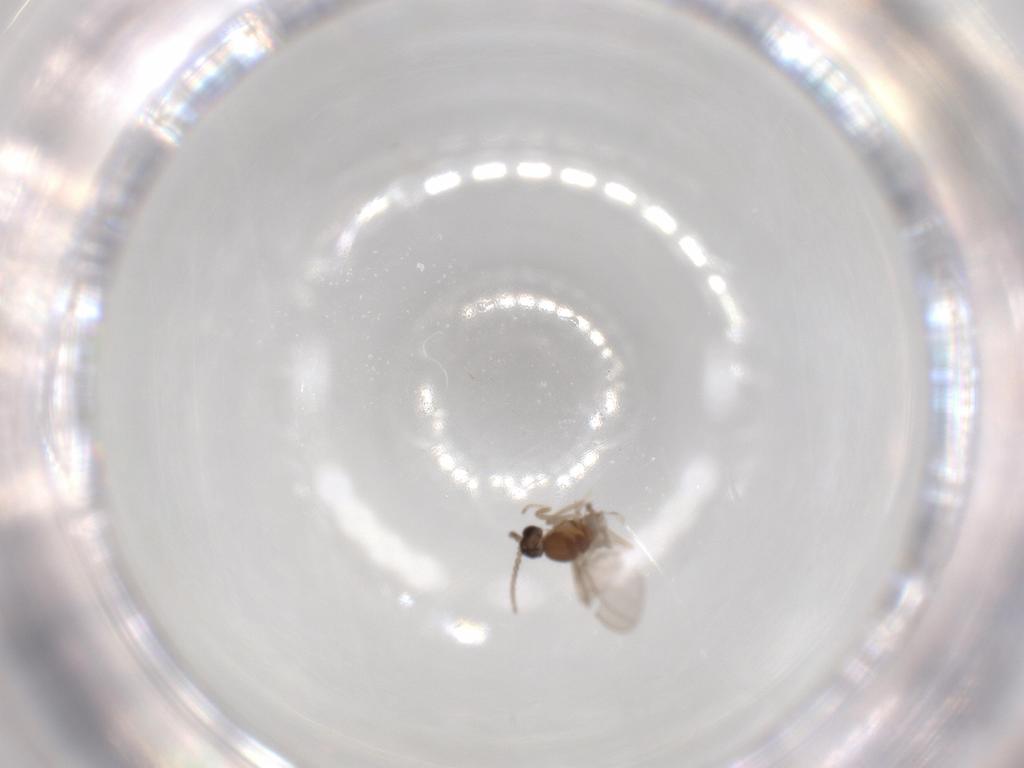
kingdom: Animalia
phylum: Arthropoda
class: Insecta
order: Diptera
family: Cecidomyiidae
